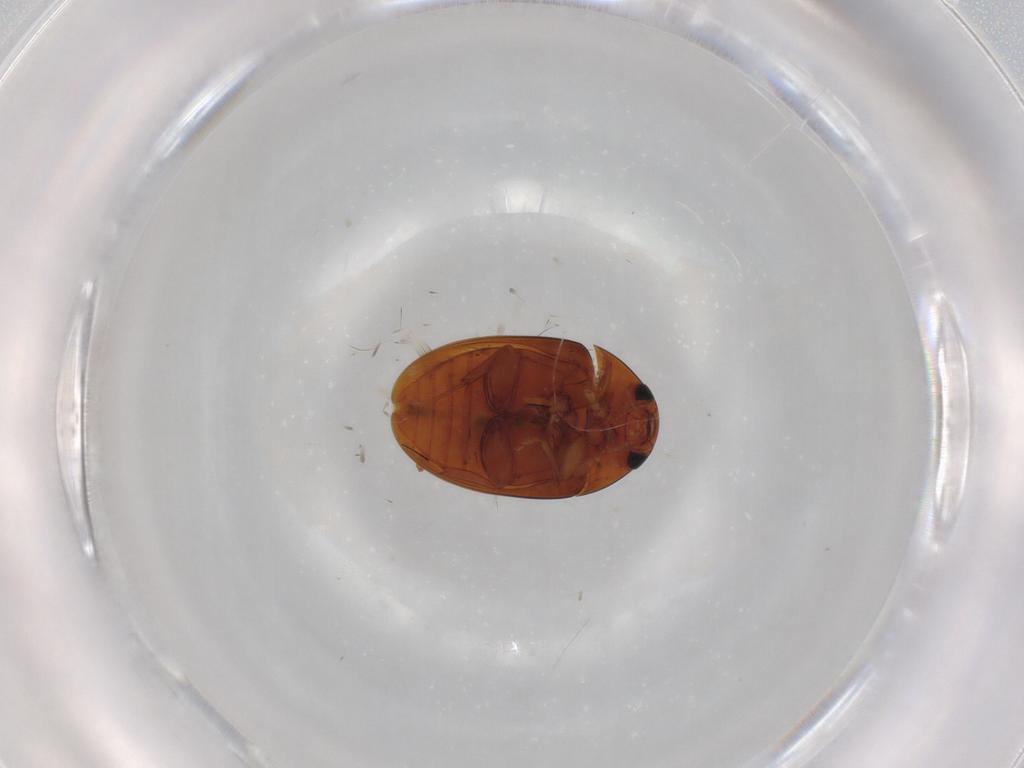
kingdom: Animalia
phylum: Arthropoda
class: Insecta
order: Coleoptera
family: Phalacridae
